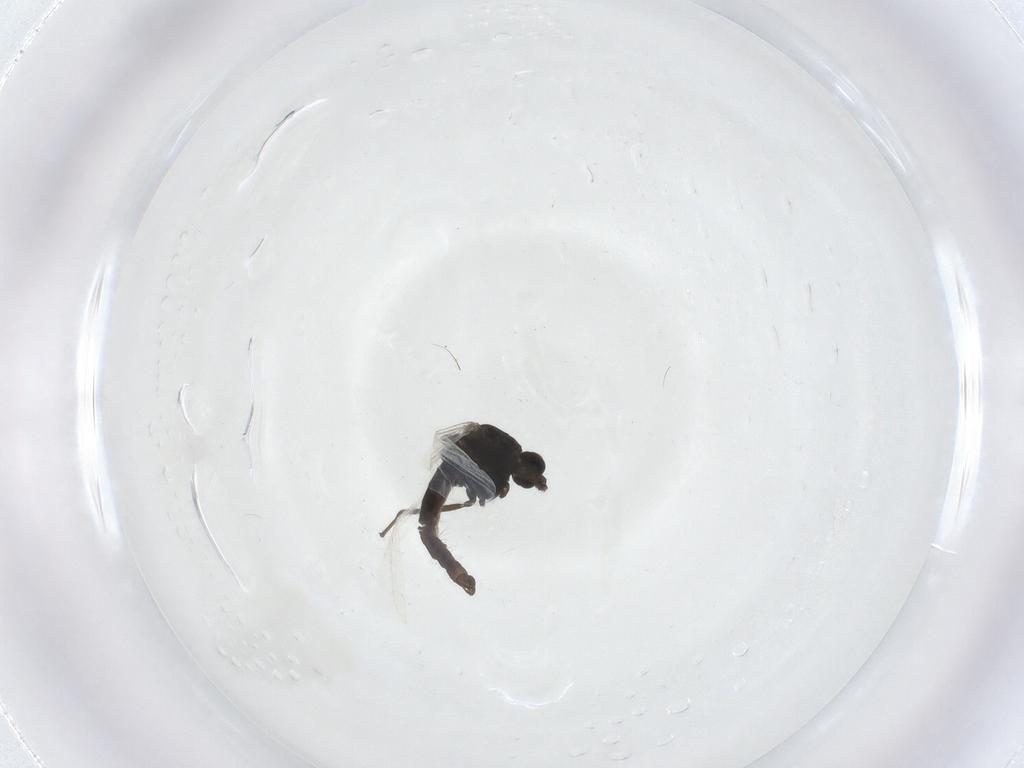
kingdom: Animalia
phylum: Arthropoda
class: Insecta
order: Diptera
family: Chironomidae
